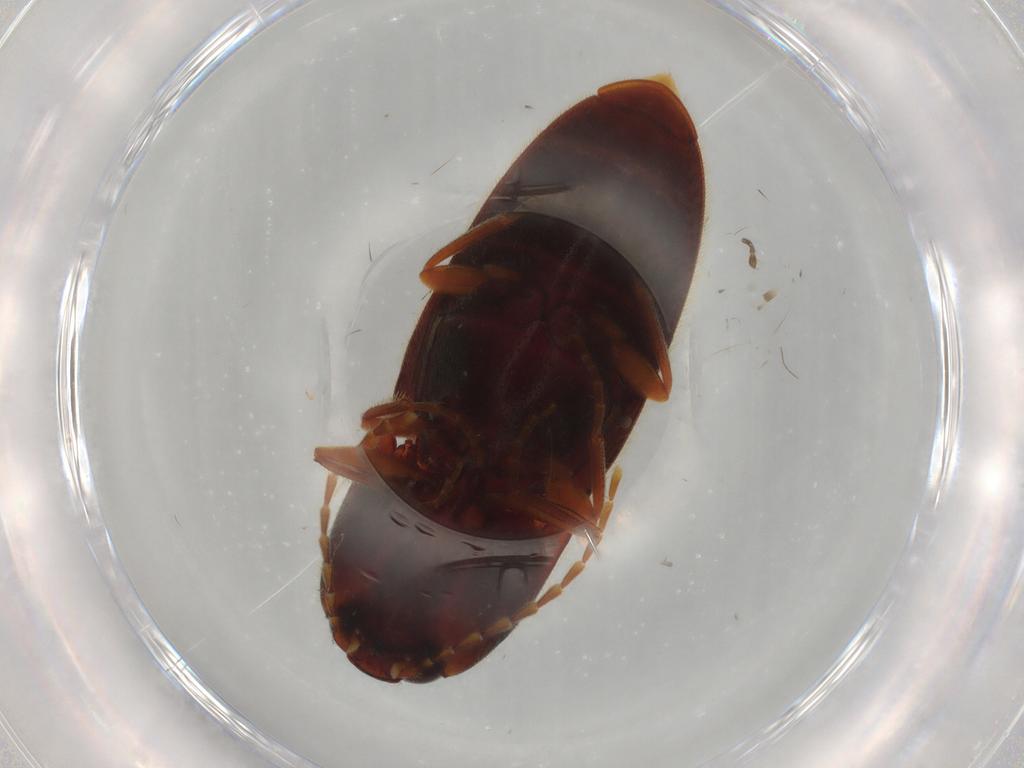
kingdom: Animalia
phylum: Arthropoda
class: Insecta
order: Coleoptera
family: Elateridae
